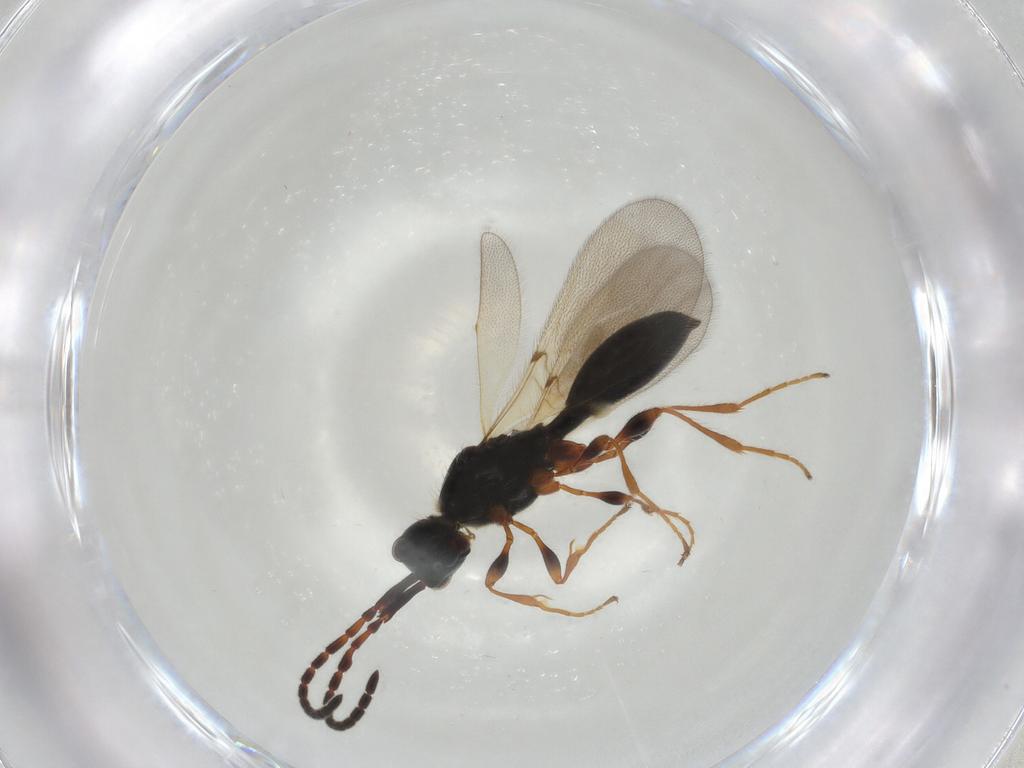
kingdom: Animalia
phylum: Arthropoda
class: Insecta
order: Hymenoptera
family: Diapriidae
